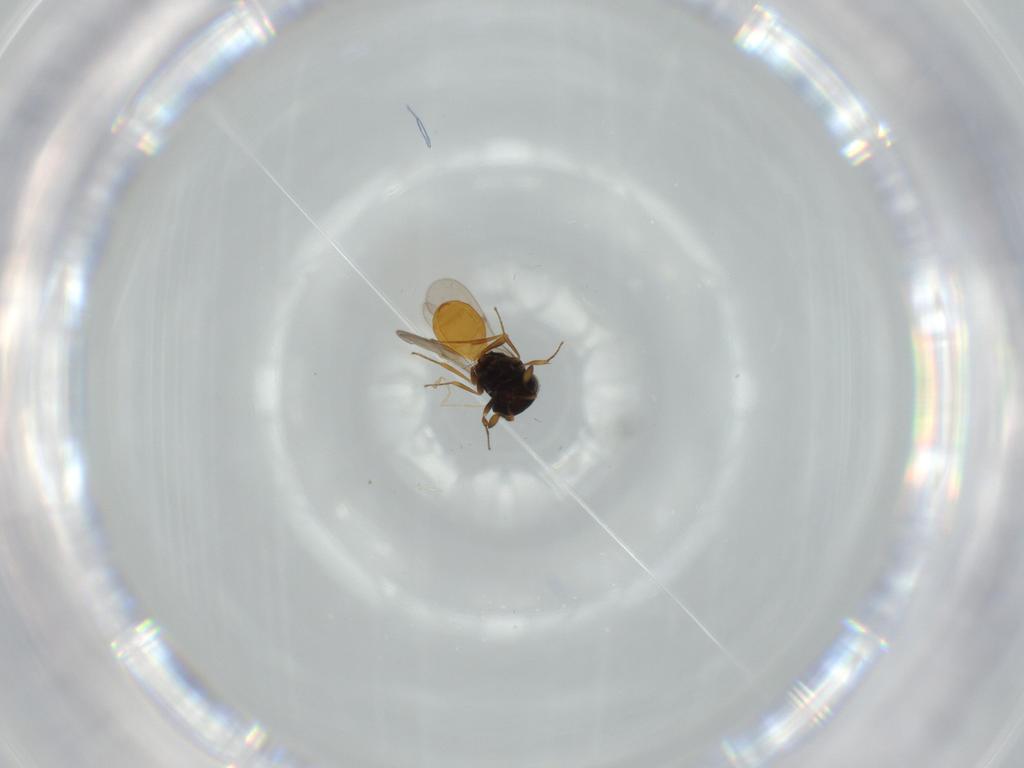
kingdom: Animalia
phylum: Arthropoda
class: Insecta
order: Hymenoptera
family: Scelionidae
